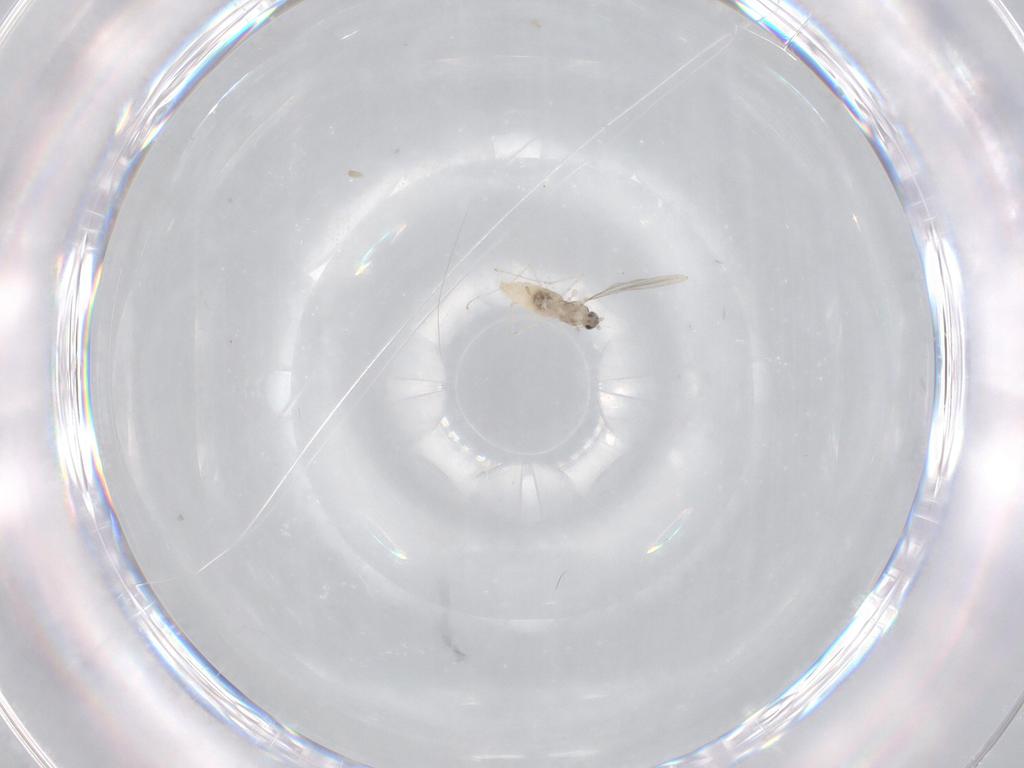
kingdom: Animalia
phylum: Arthropoda
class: Insecta
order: Diptera
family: Cecidomyiidae
